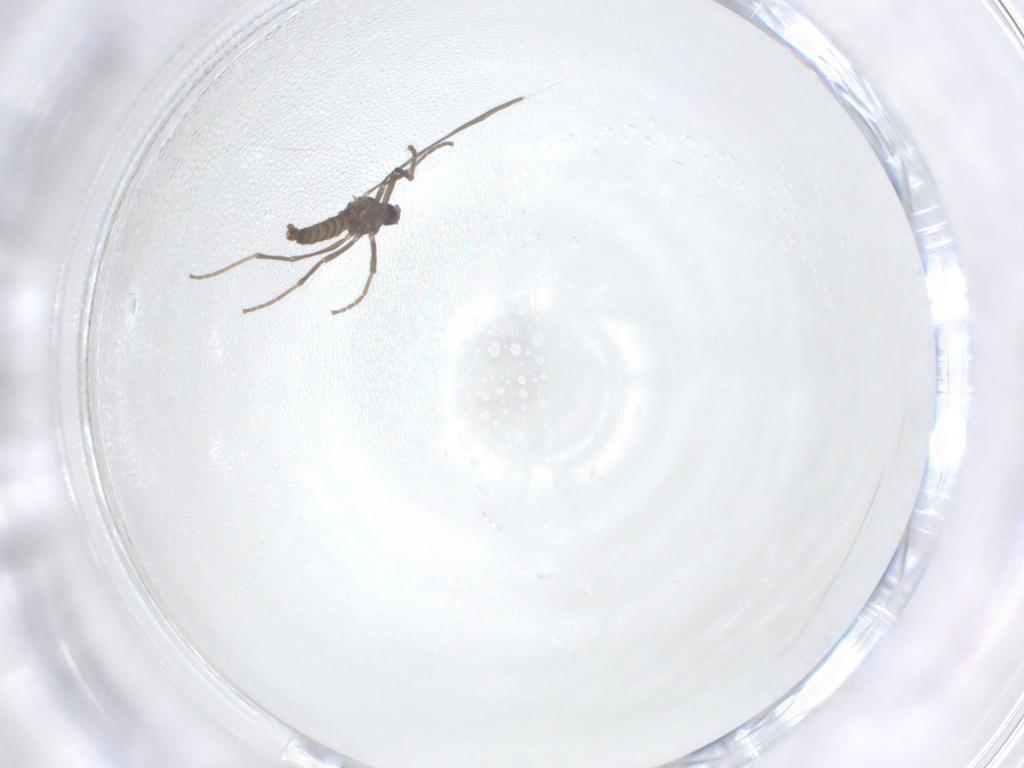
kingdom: Animalia
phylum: Arthropoda
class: Insecta
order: Diptera
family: Cecidomyiidae
